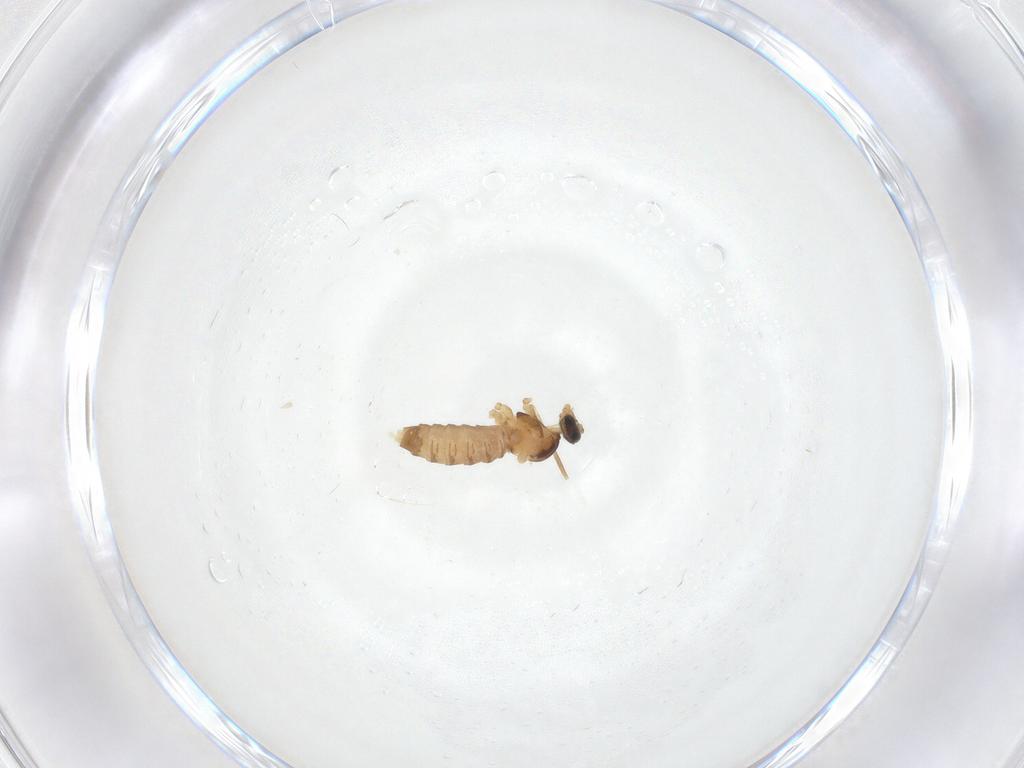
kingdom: Animalia
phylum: Arthropoda
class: Insecta
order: Diptera
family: Cecidomyiidae
